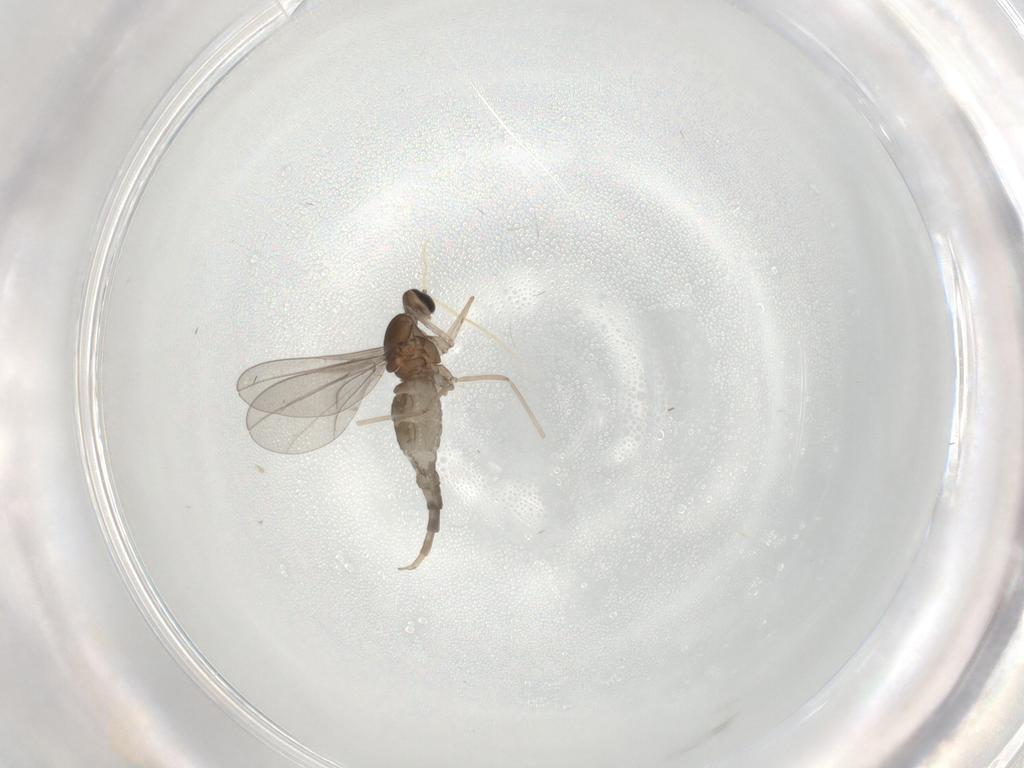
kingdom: Animalia
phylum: Arthropoda
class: Insecta
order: Diptera
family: Cecidomyiidae
